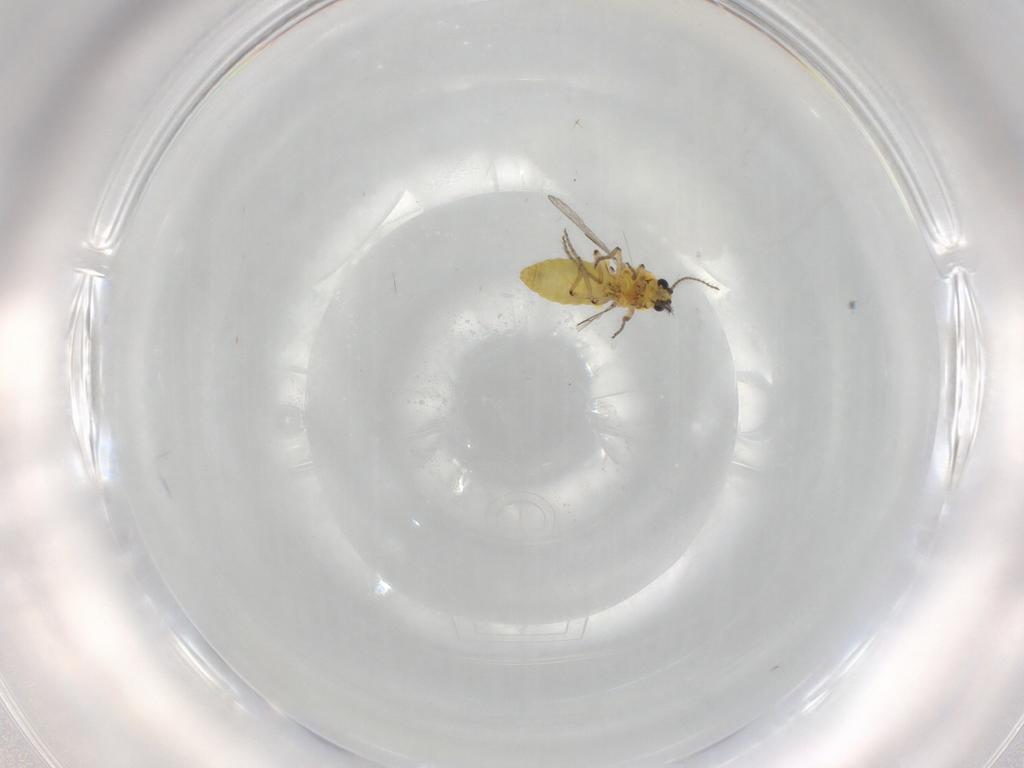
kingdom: Animalia
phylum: Arthropoda
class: Insecta
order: Diptera
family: Ceratopogonidae
